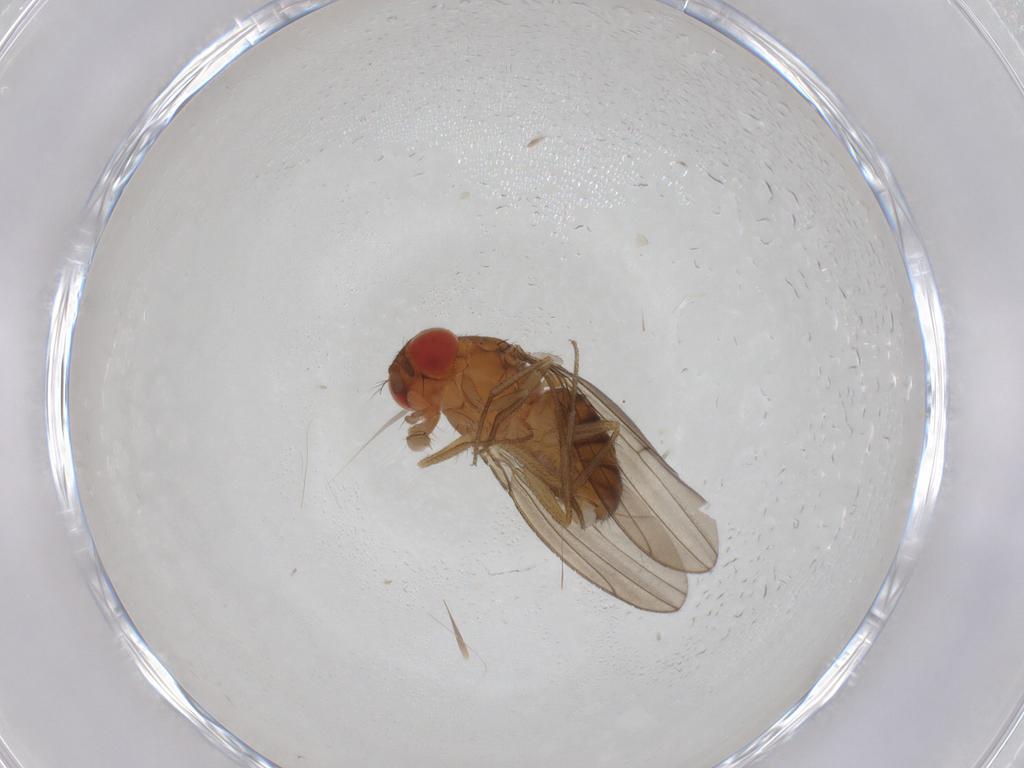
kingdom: Animalia
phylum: Arthropoda
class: Insecta
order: Diptera
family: Drosophilidae
